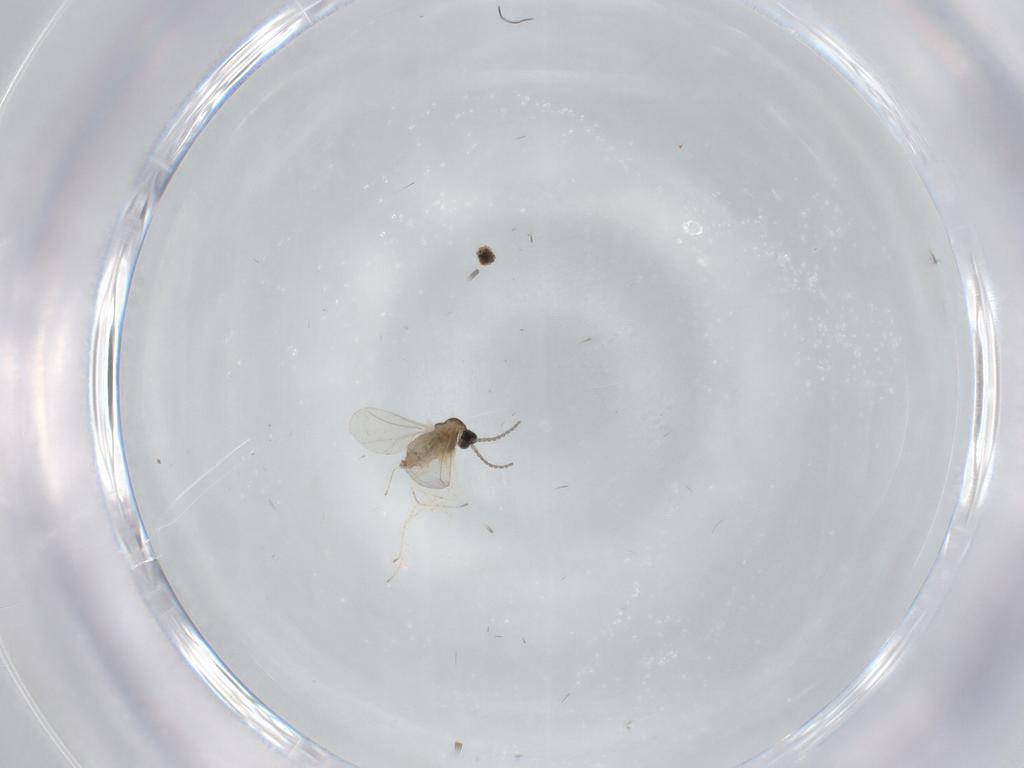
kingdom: Animalia
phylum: Arthropoda
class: Insecta
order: Diptera
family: Cecidomyiidae
